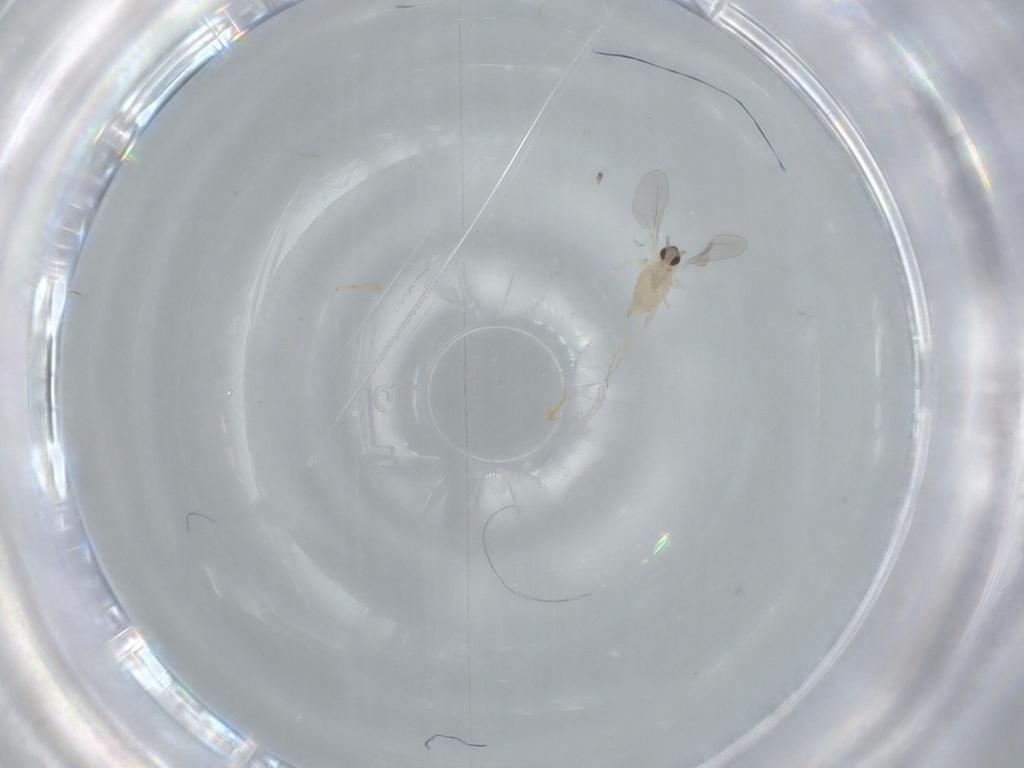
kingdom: Animalia
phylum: Arthropoda
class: Insecta
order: Diptera
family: Cecidomyiidae
